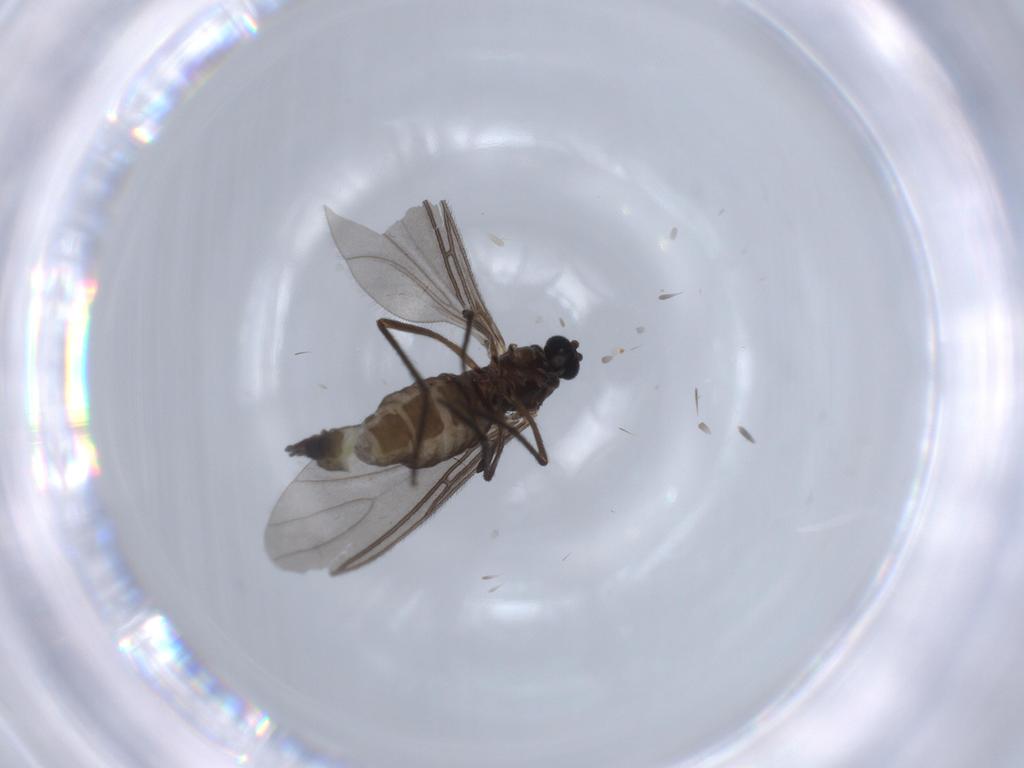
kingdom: Animalia
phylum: Arthropoda
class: Insecta
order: Diptera
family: Sciaridae
